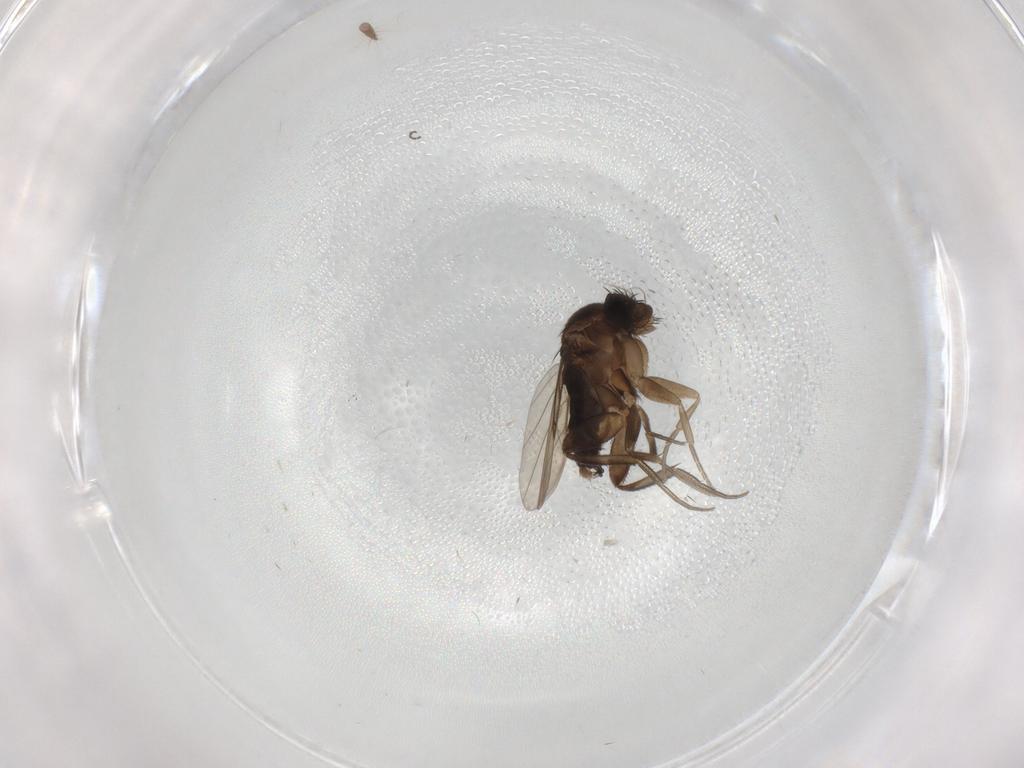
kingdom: Animalia
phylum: Arthropoda
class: Insecta
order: Diptera
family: Phoridae
